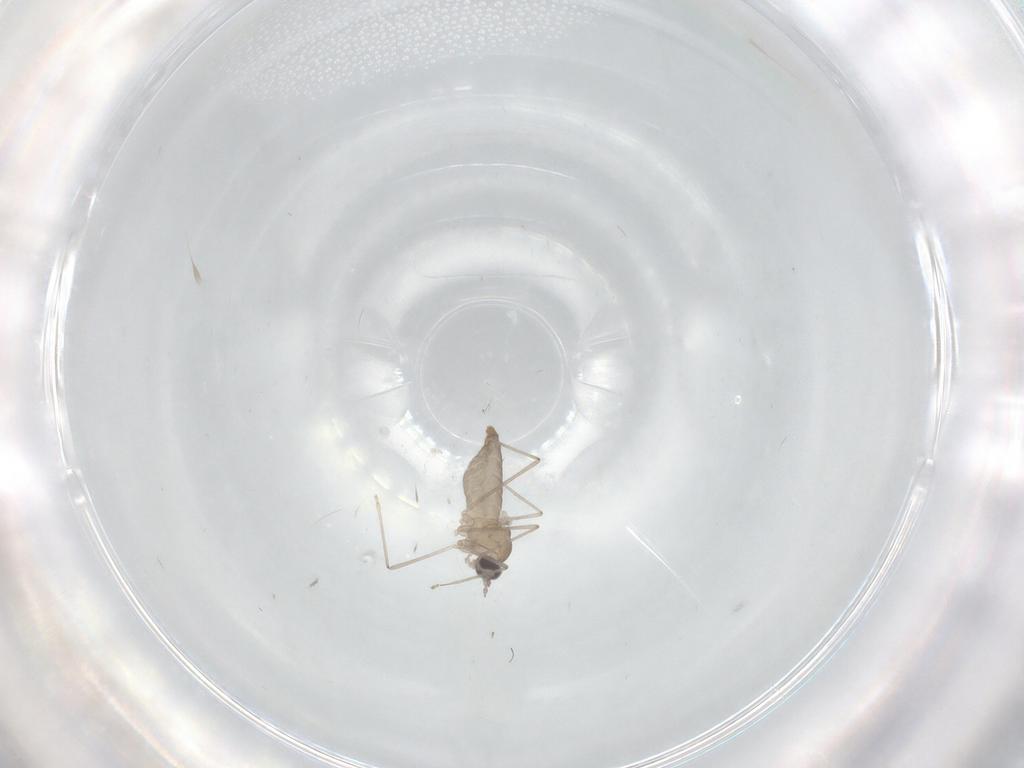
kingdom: Animalia
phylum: Arthropoda
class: Insecta
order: Diptera
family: Cecidomyiidae
